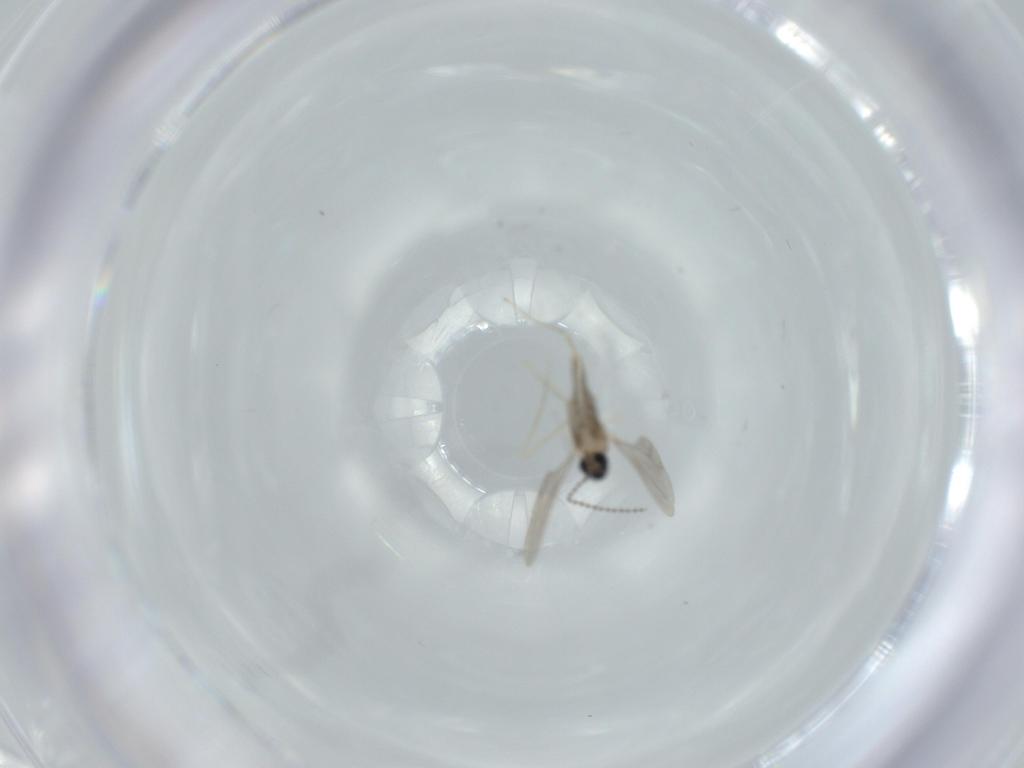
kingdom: Animalia
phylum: Arthropoda
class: Insecta
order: Diptera
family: Cecidomyiidae
